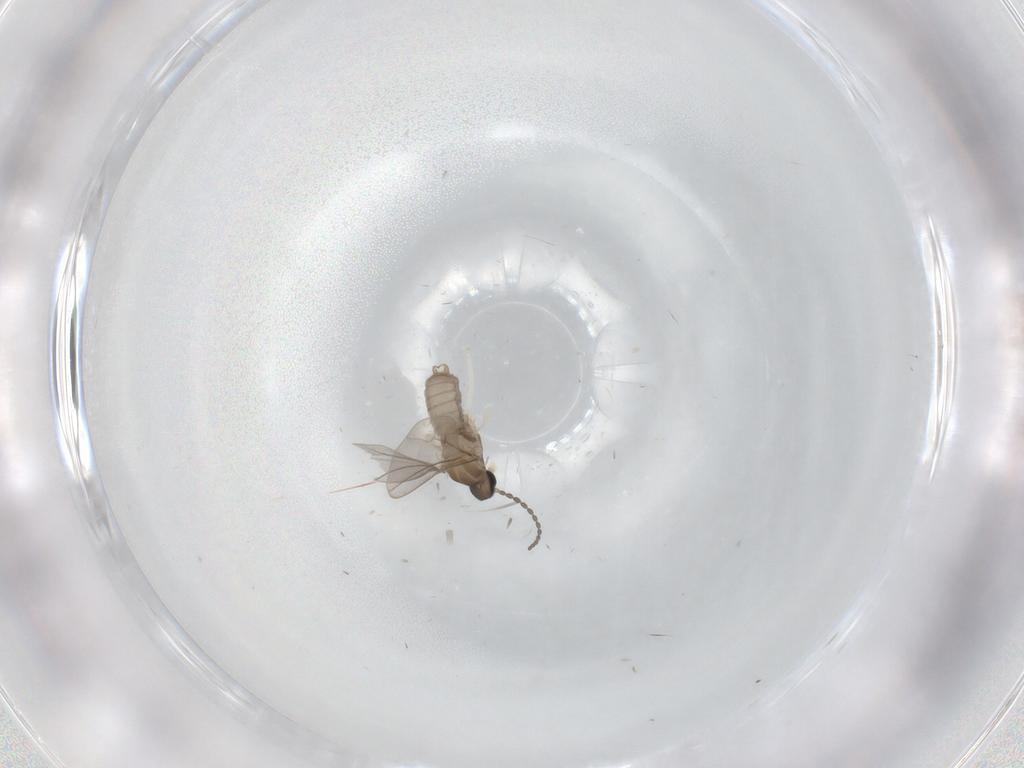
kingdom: Animalia
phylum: Arthropoda
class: Insecta
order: Diptera
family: Cecidomyiidae
